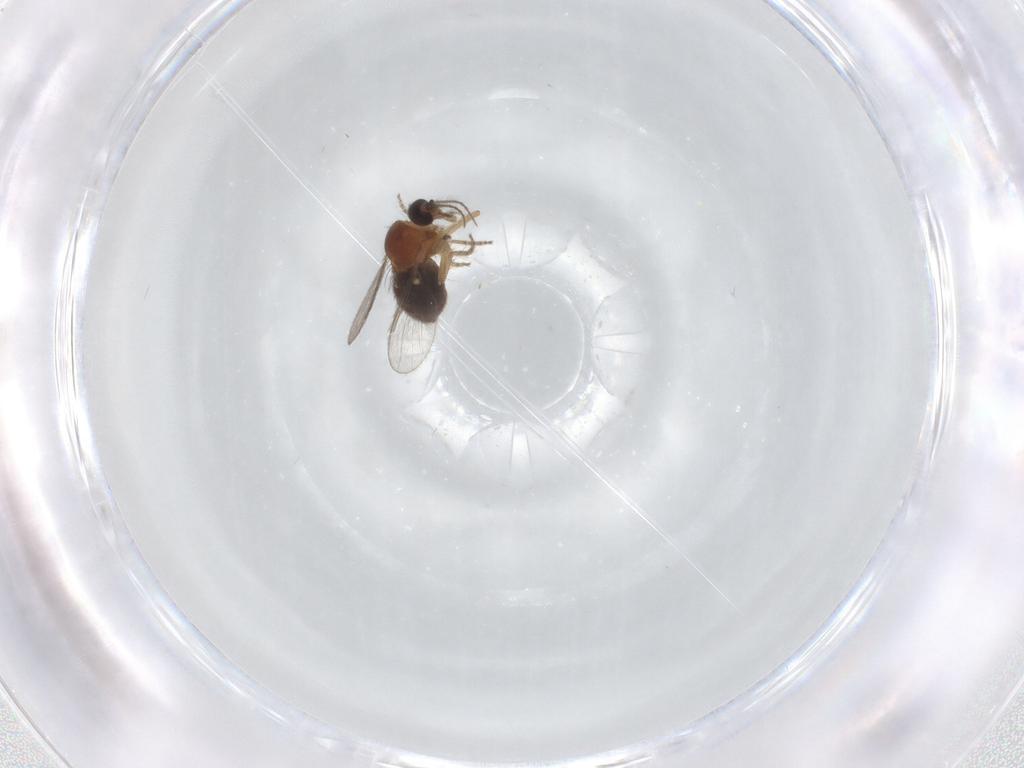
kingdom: Animalia
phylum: Arthropoda
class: Insecta
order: Diptera
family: Ceratopogonidae
